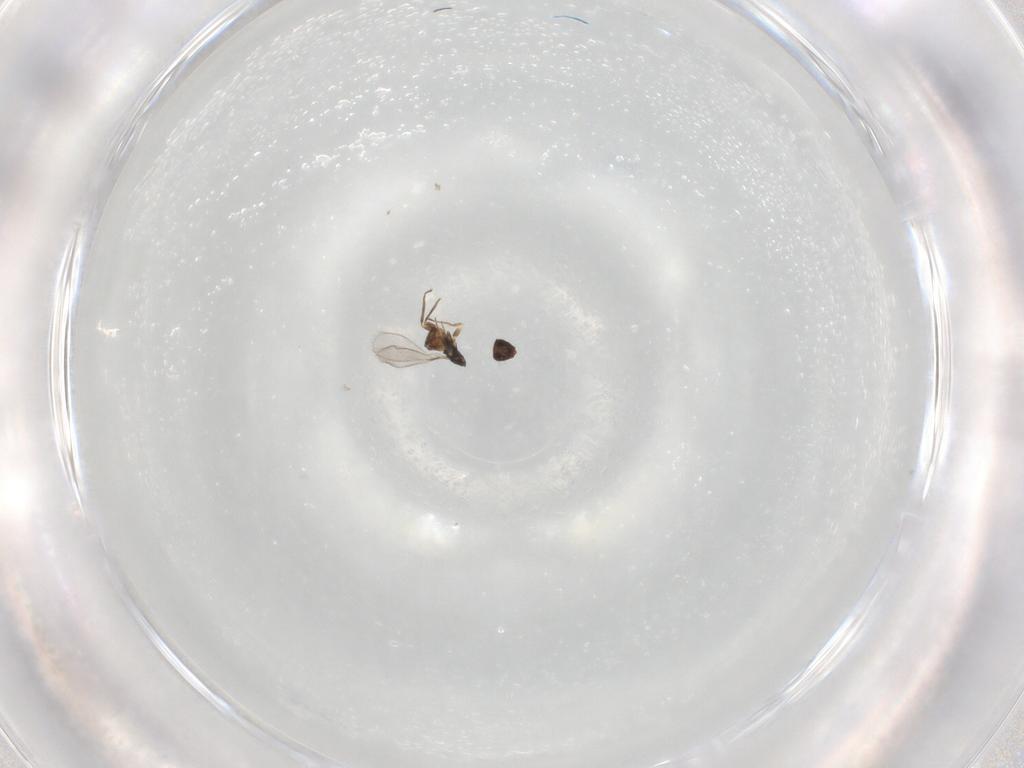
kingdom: Animalia
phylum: Arthropoda
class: Insecta
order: Hymenoptera
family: Mymaridae
